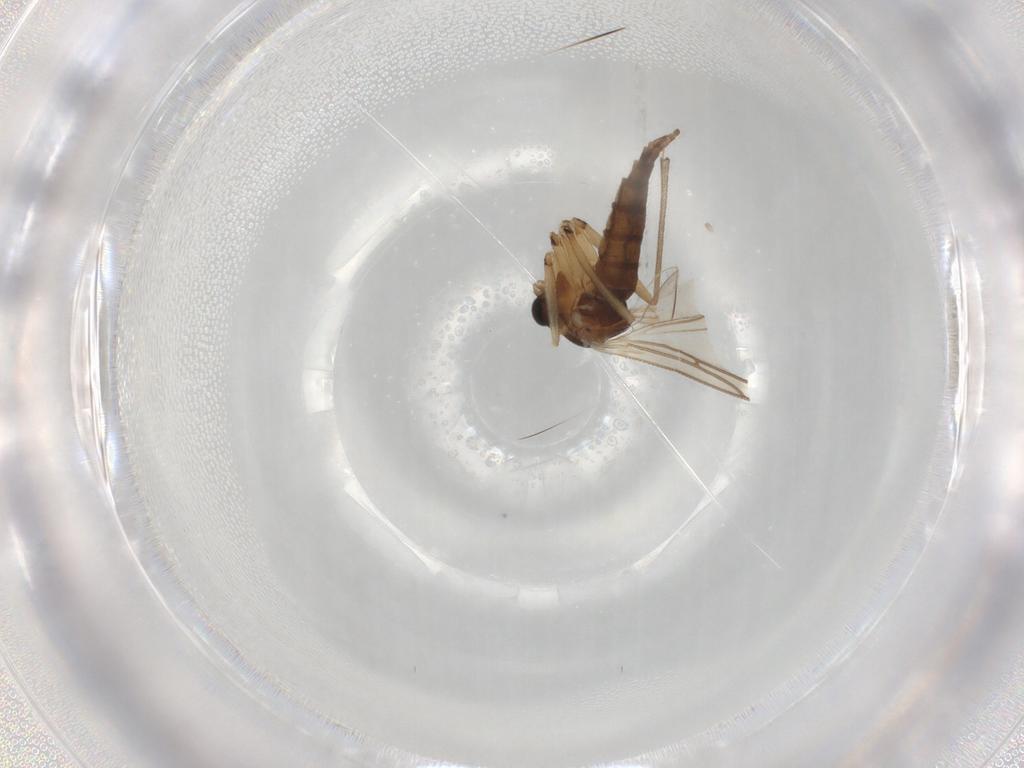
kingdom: Animalia
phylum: Arthropoda
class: Insecta
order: Diptera
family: Sciaridae
